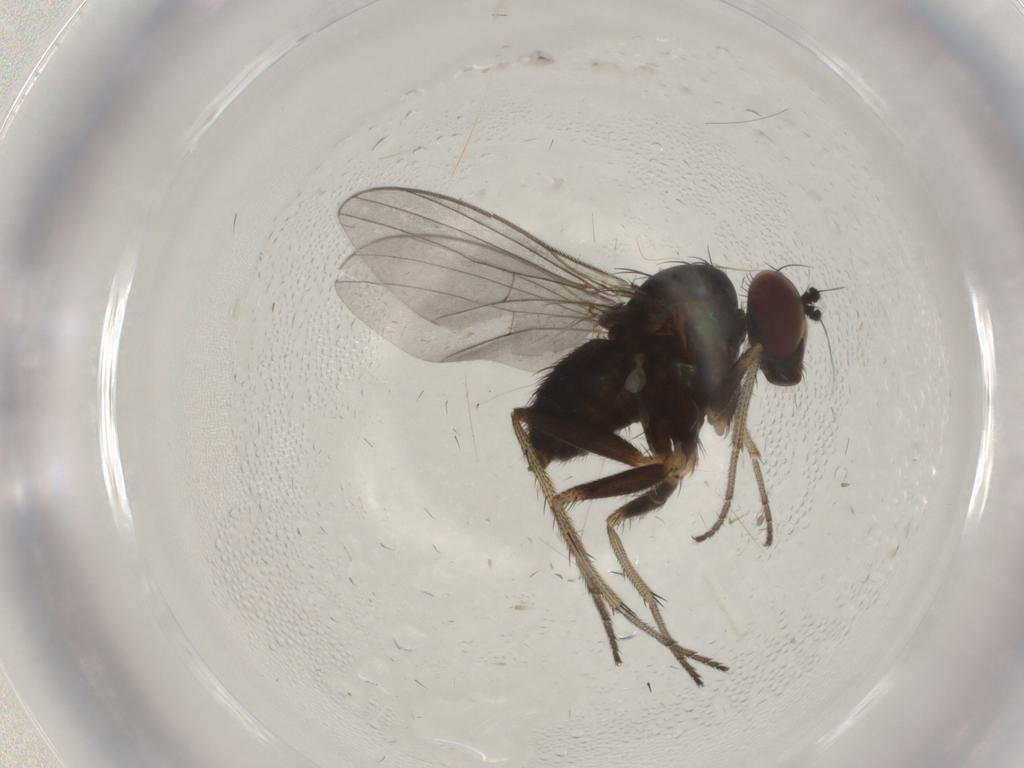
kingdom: Animalia
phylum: Arthropoda
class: Insecta
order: Diptera
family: Dolichopodidae
